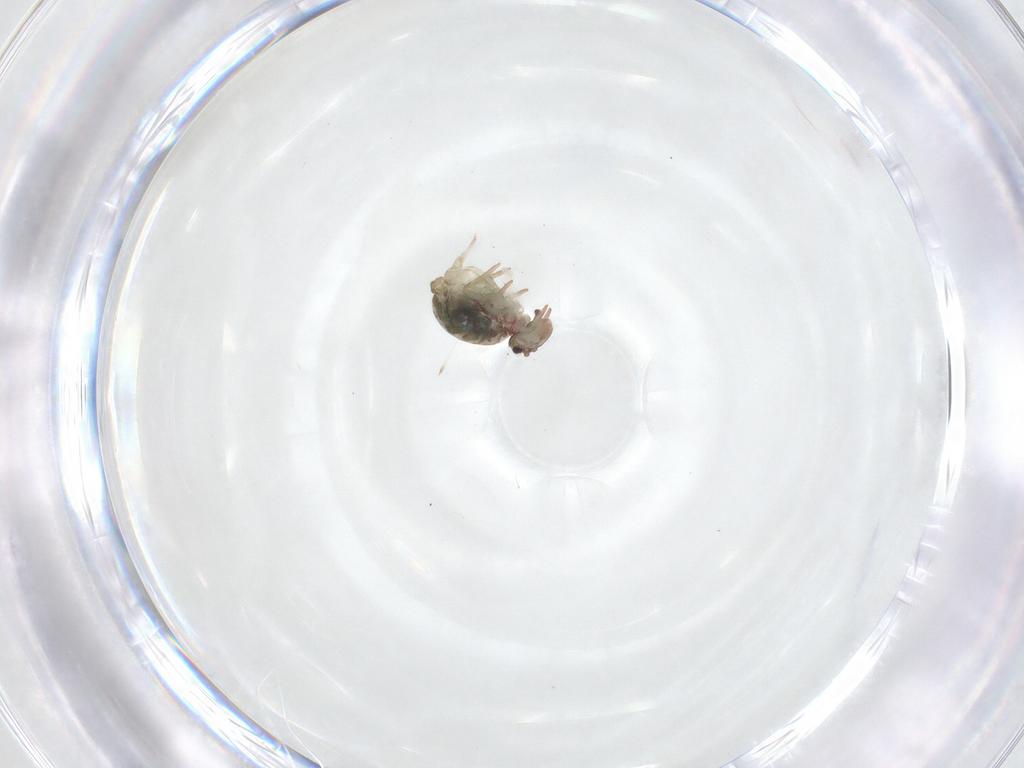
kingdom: Animalia
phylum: Arthropoda
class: Collembola
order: Symphypleona
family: Dicyrtomidae
